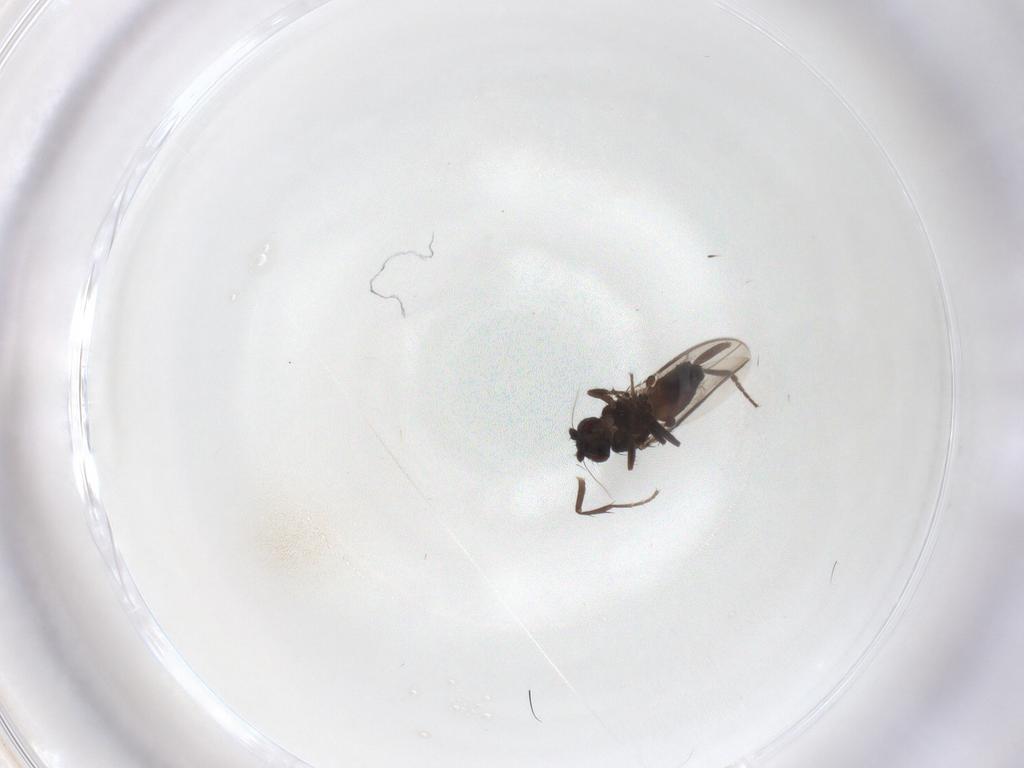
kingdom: Animalia
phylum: Arthropoda
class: Insecta
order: Diptera
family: Sphaeroceridae
